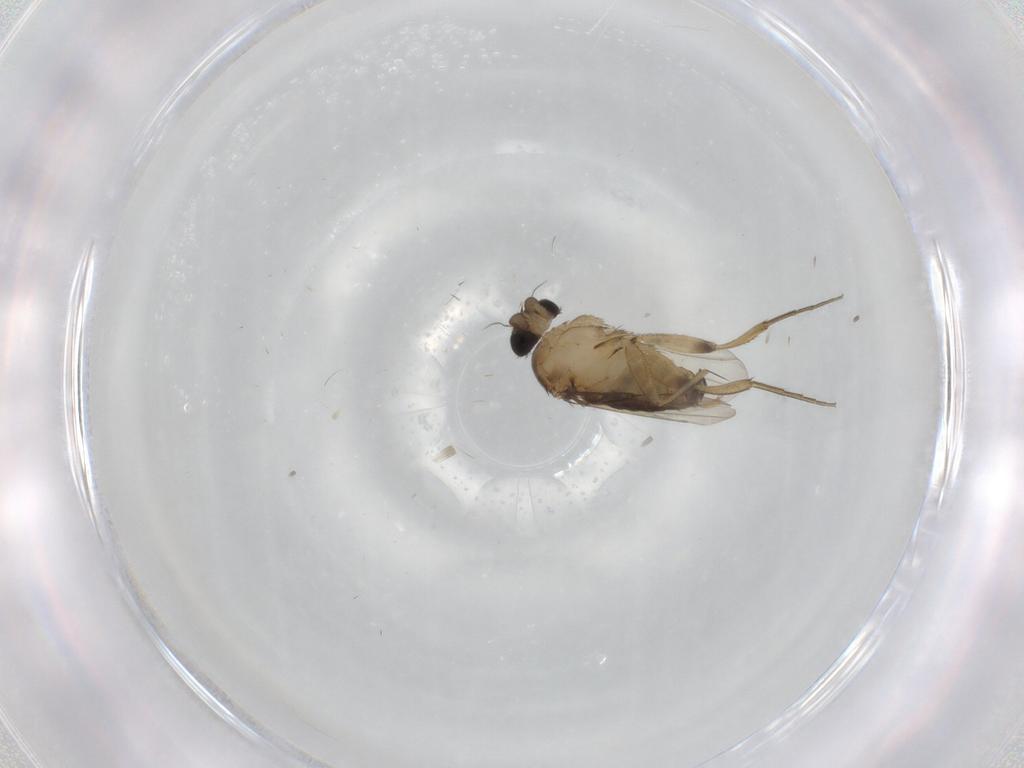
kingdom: Animalia
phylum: Arthropoda
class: Insecta
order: Diptera
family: Phoridae
